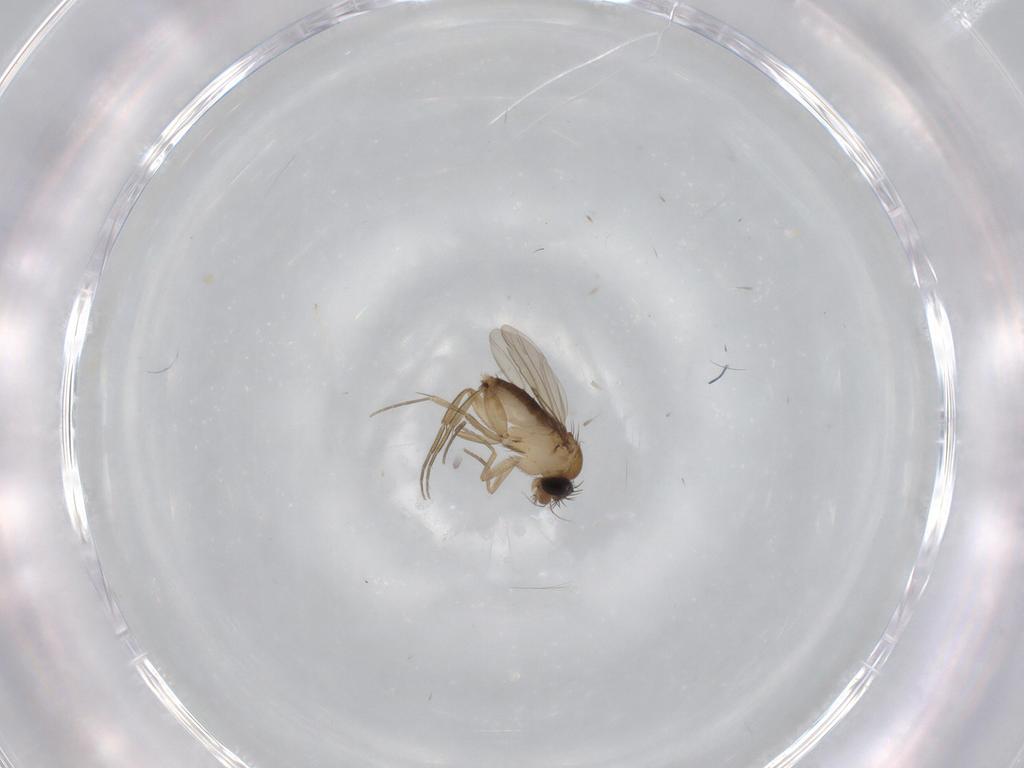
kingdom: Animalia
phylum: Arthropoda
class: Insecta
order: Diptera
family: Phoridae
